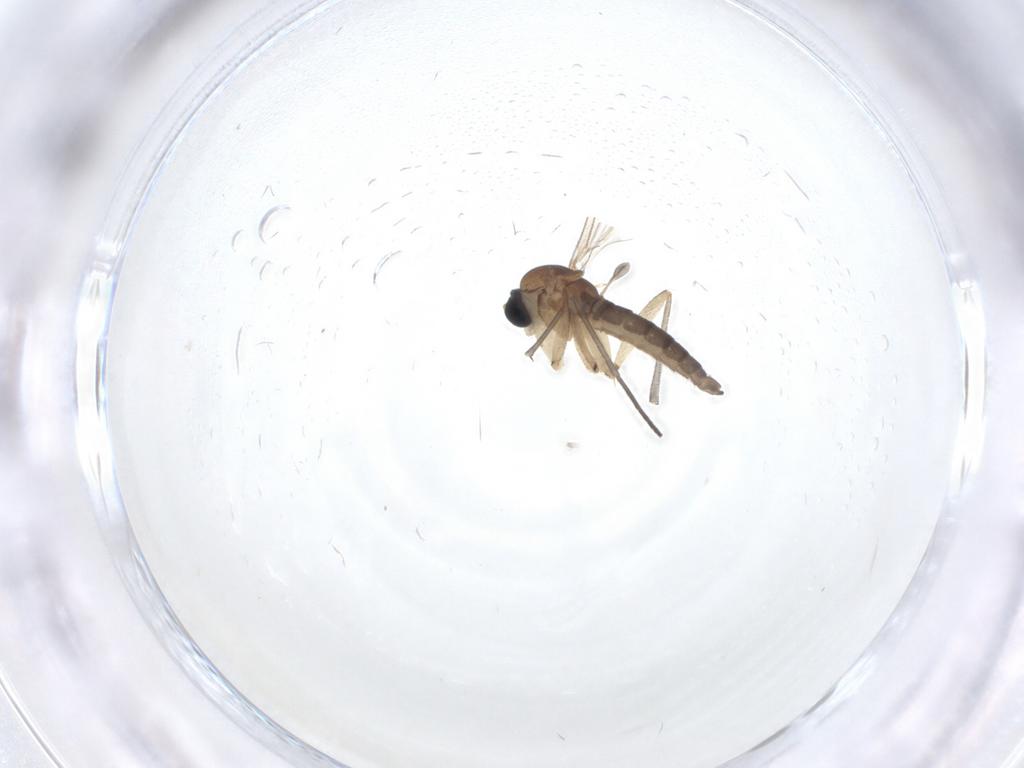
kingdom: Animalia
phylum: Arthropoda
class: Insecta
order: Diptera
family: Sciaridae
